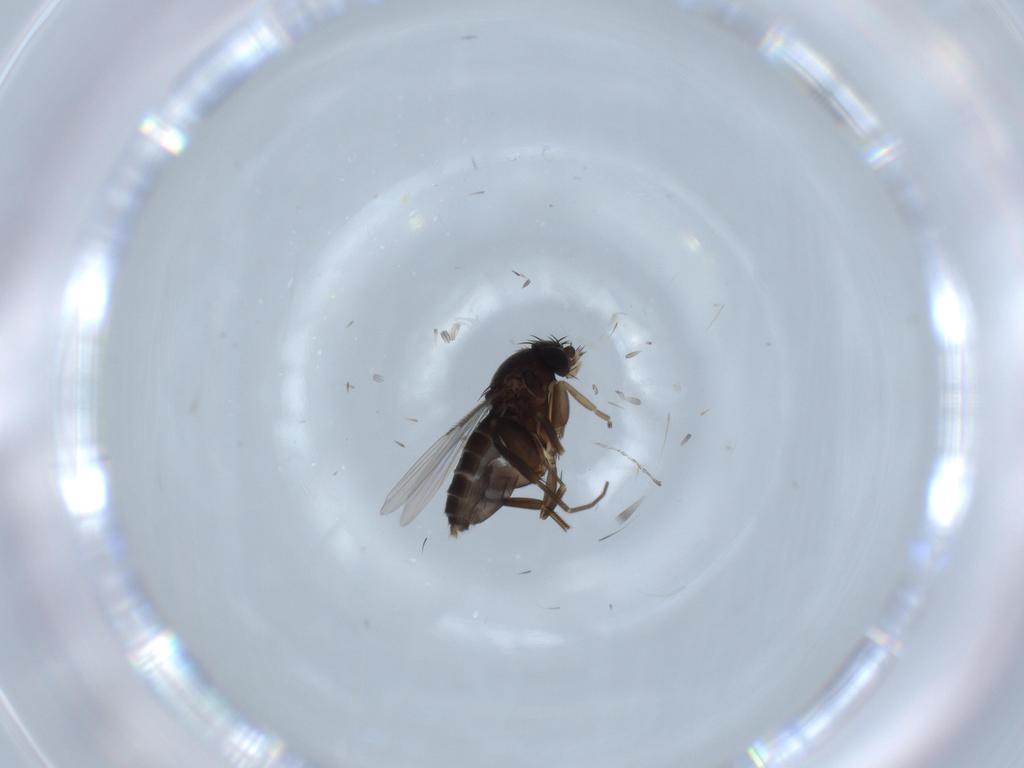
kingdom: Animalia
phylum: Arthropoda
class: Insecta
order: Diptera
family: Phoridae
